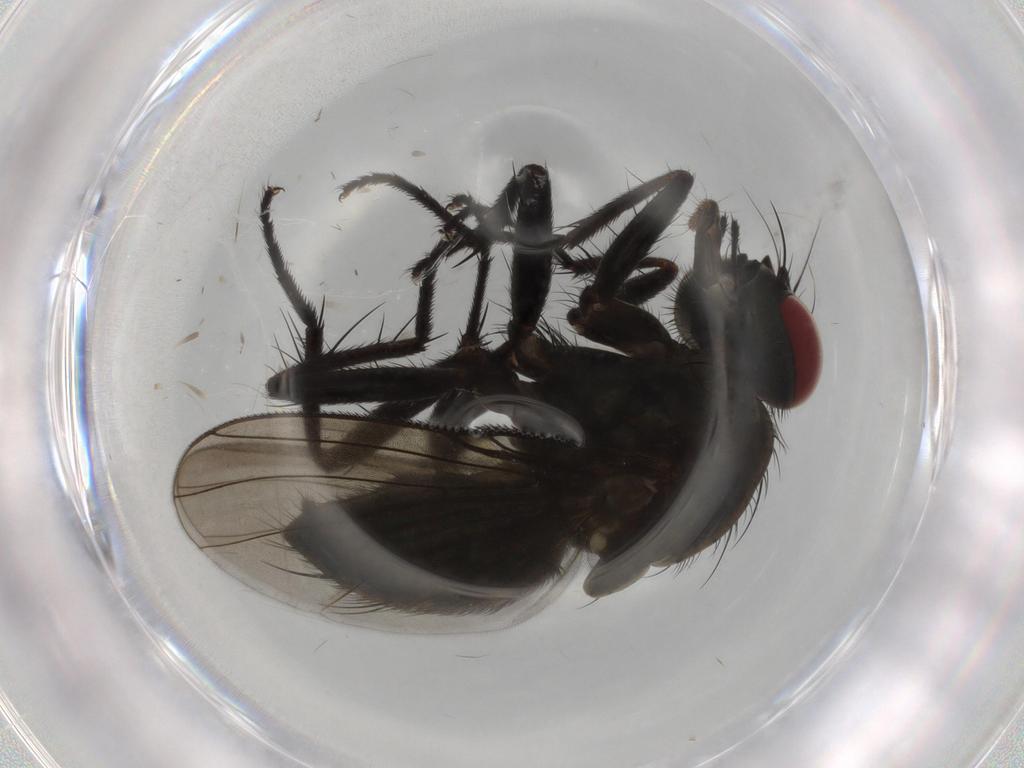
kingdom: Animalia
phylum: Arthropoda
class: Insecta
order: Diptera
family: Muscidae
